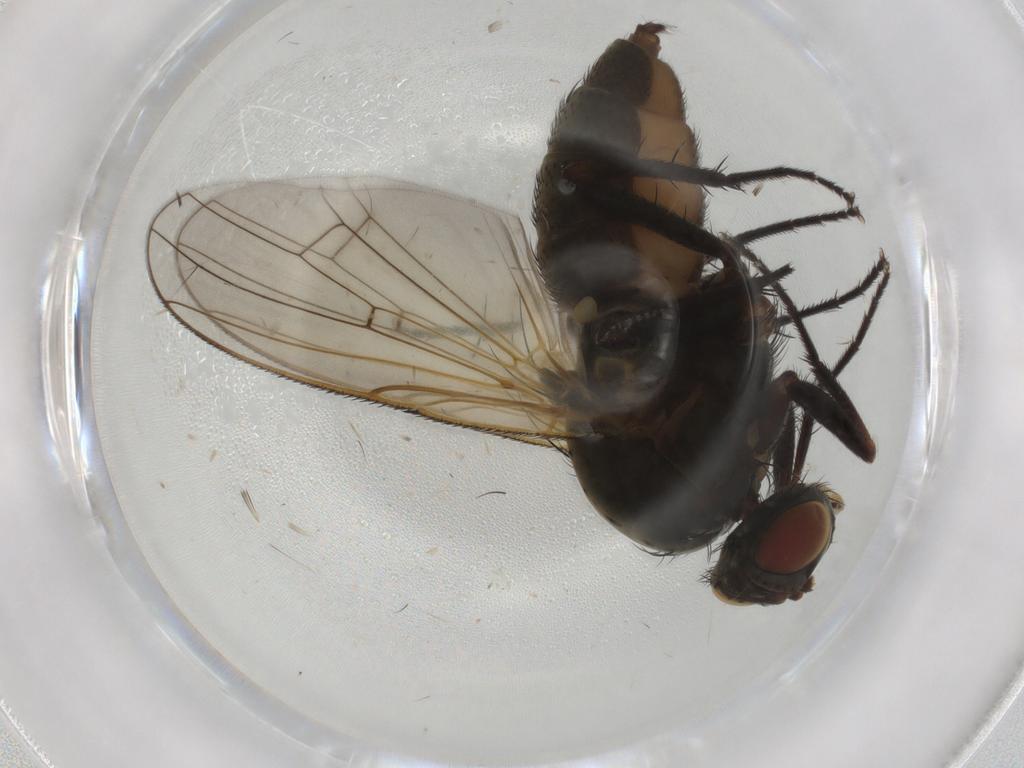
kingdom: Animalia
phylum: Arthropoda
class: Insecta
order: Diptera
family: Anthomyiidae
